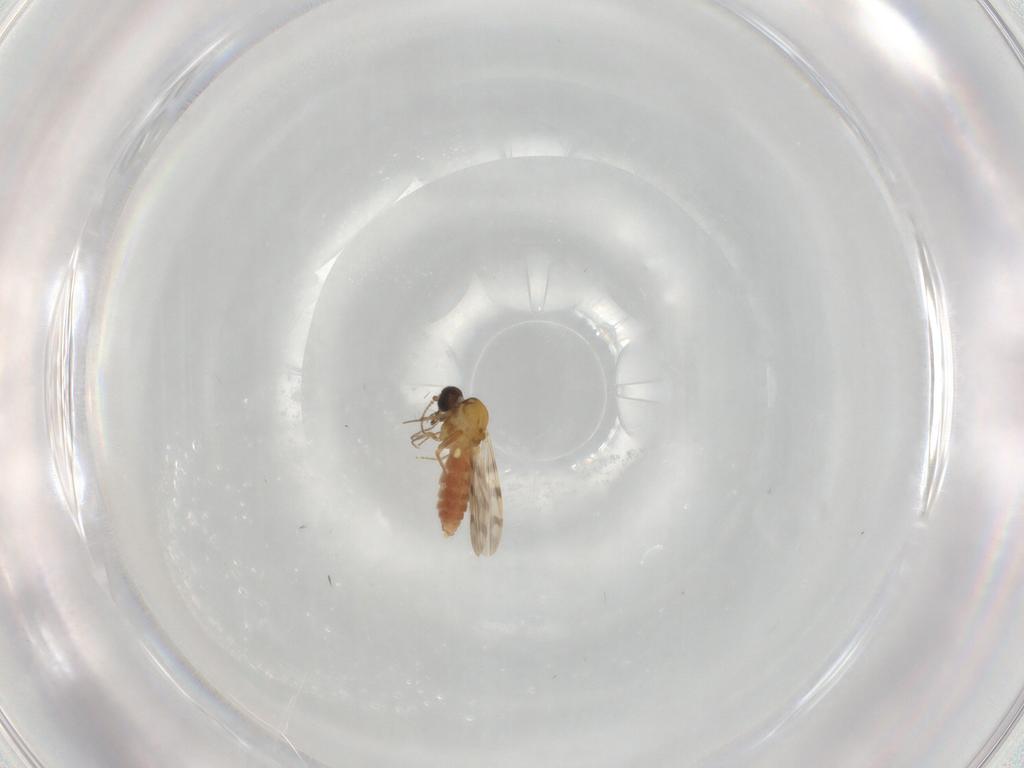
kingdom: Animalia
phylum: Arthropoda
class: Insecta
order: Diptera
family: Ceratopogonidae
